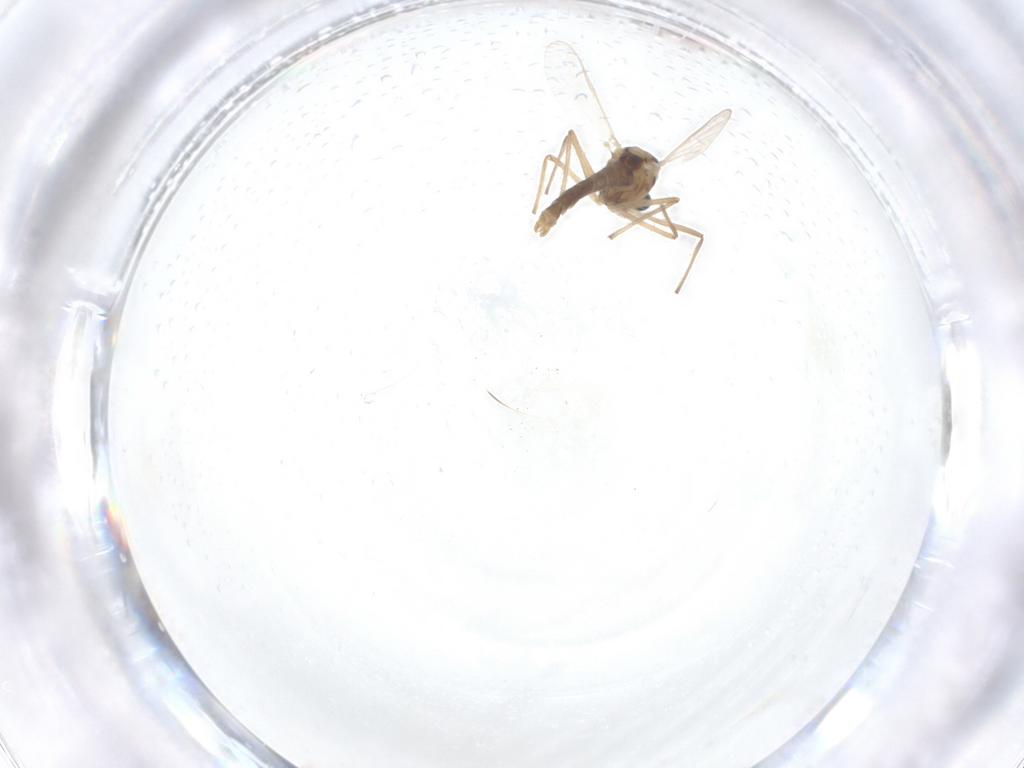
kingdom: Animalia
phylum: Arthropoda
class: Insecta
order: Diptera
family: Chironomidae
